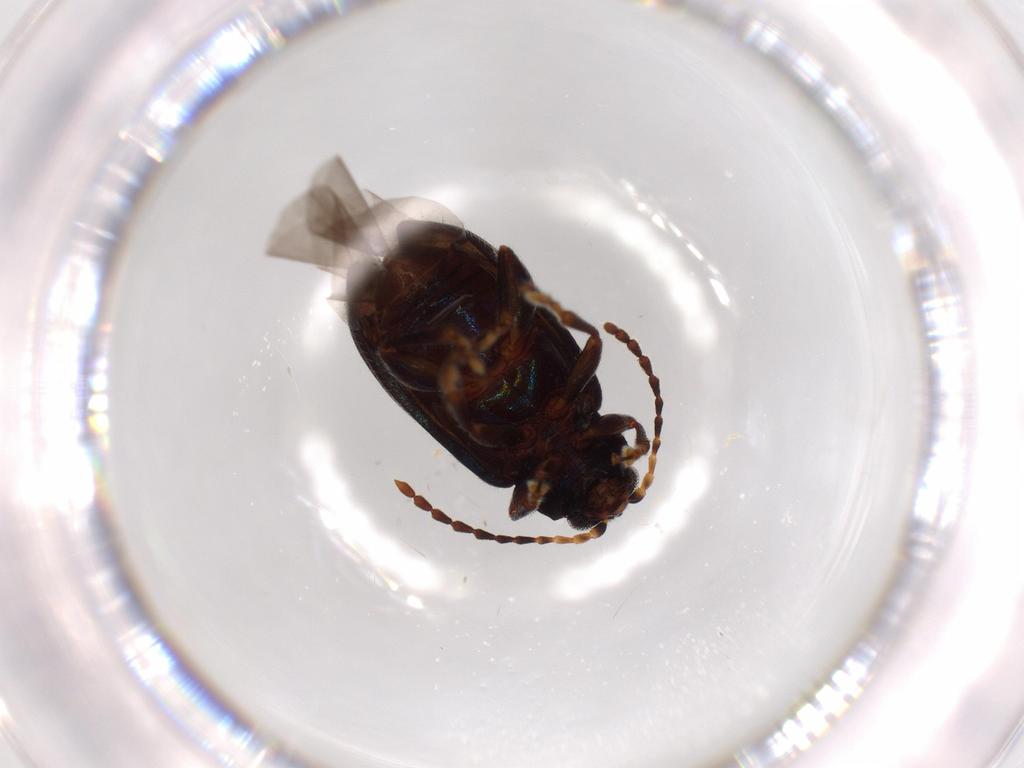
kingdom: Animalia
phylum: Arthropoda
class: Insecta
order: Coleoptera
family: Chrysomelidae
